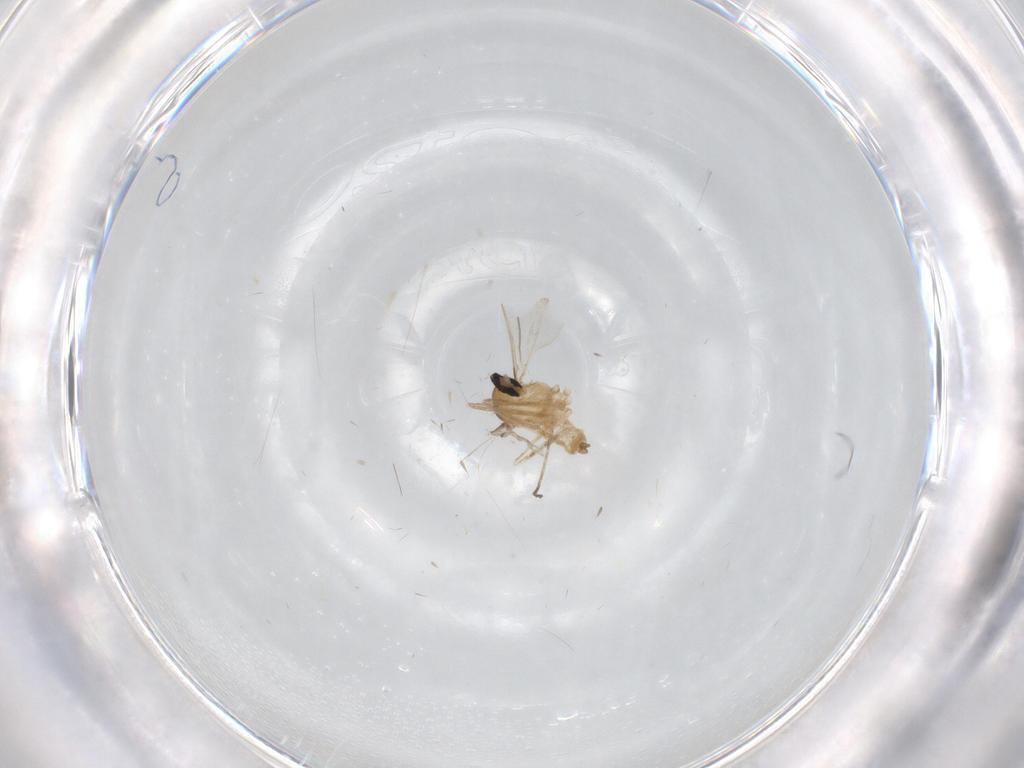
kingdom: Animalia
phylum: Arthropoda
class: Insecta
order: Diptera
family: Cecidomyiidae
